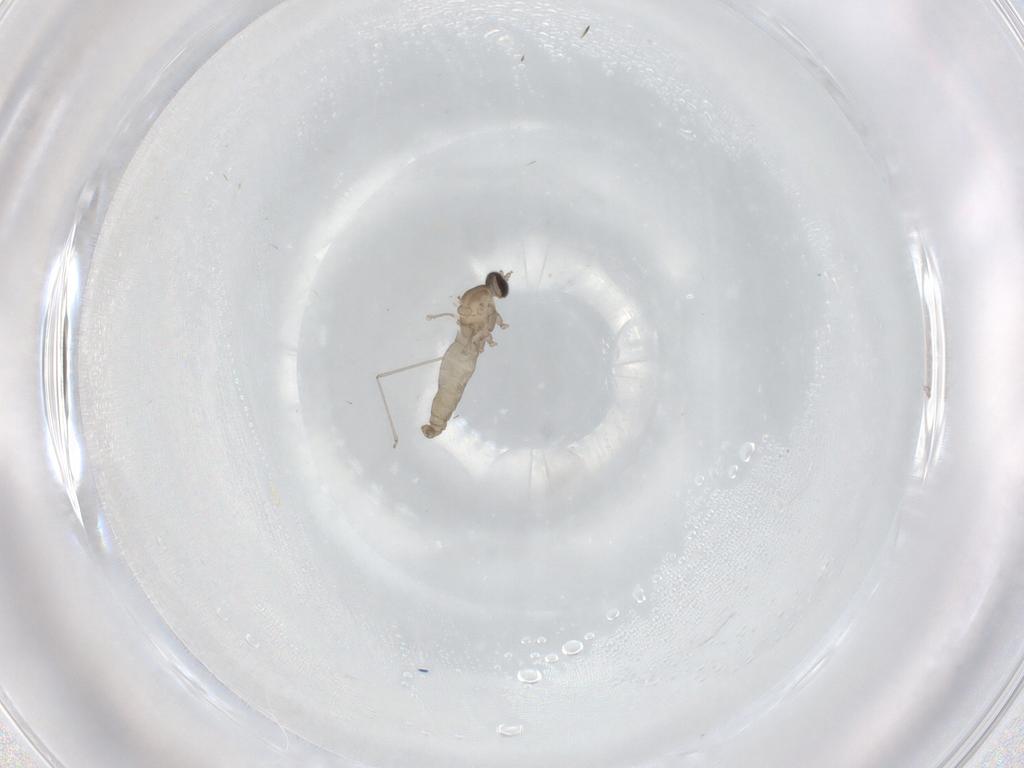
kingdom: Animalia
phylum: Arthropoda
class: Insecta
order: Diptera
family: Cecidomyiidae
